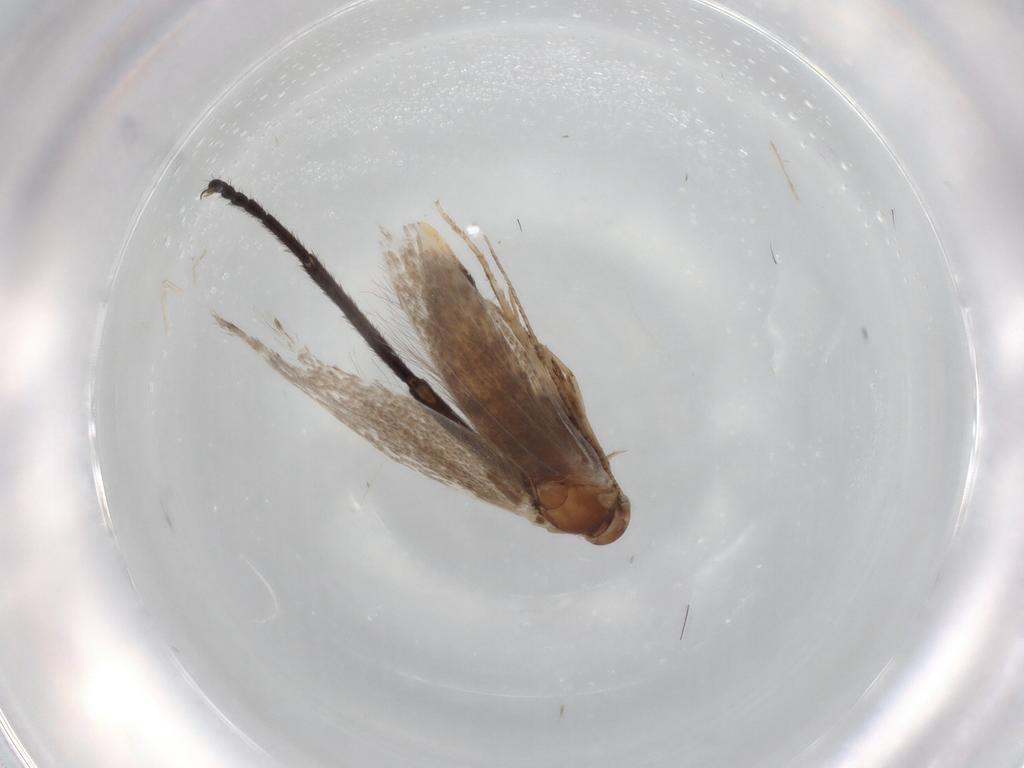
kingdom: Animalia
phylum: Arthropoda
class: Insecta
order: Lepidoptera
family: Elachistidae
